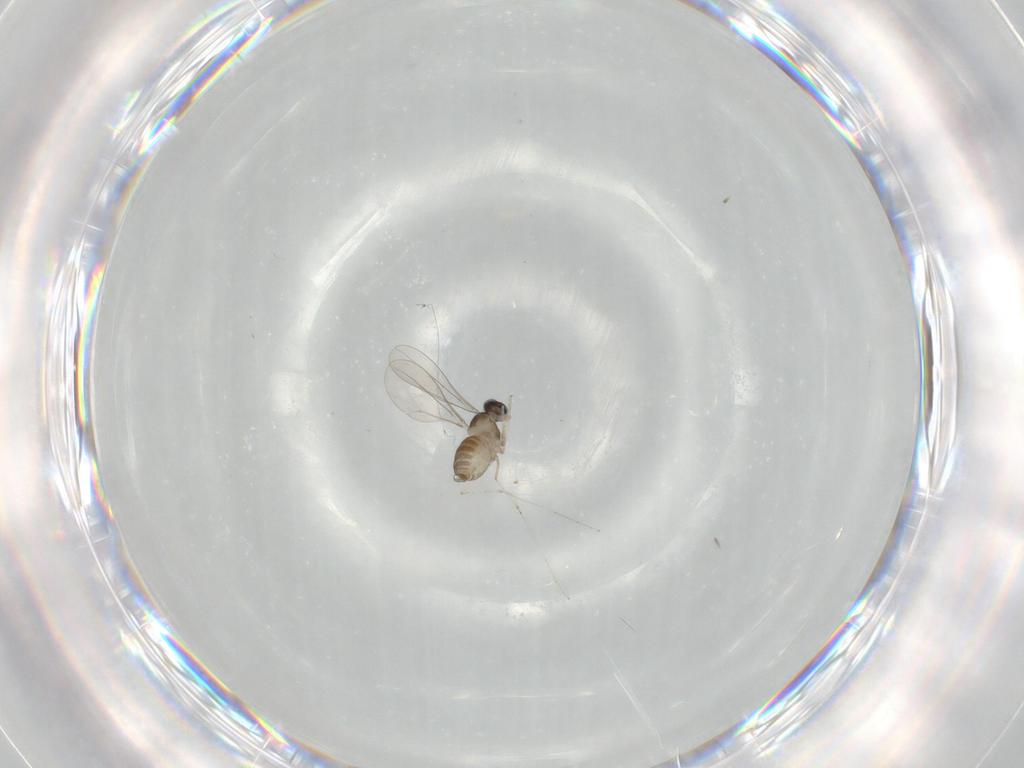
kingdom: Animalia
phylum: Arthropoda
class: Insecta
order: Diptera
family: Cecidomyiidae
